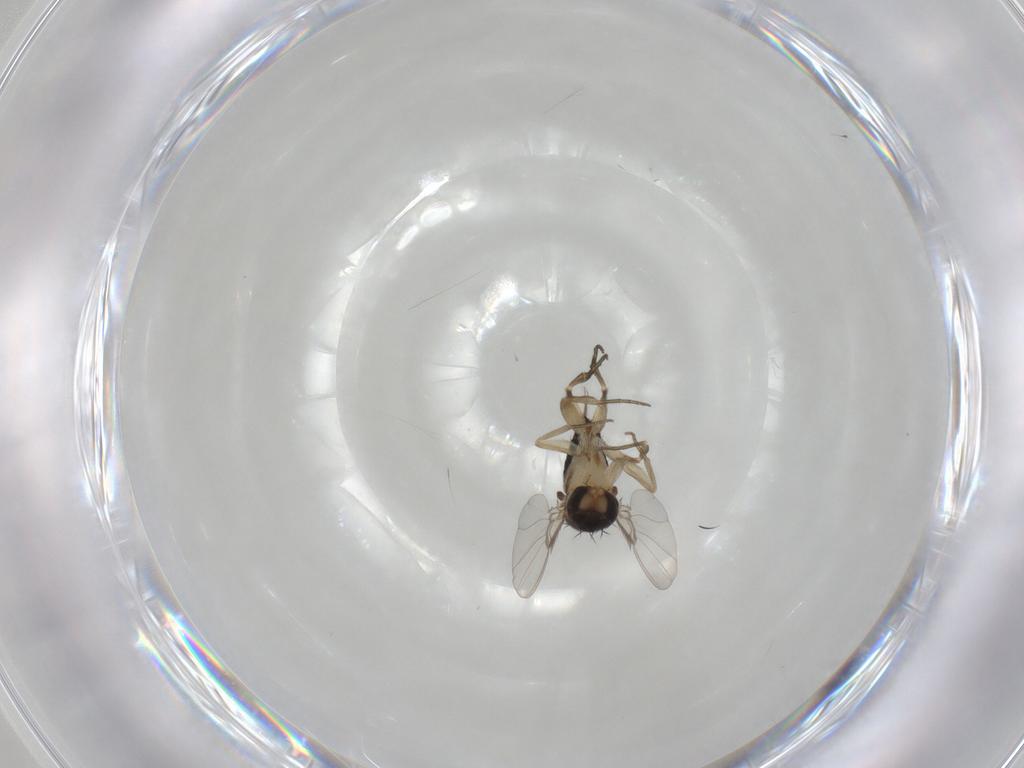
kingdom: Animalia
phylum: Arthropoda
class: Insecta
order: Diptera
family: Phoridae
